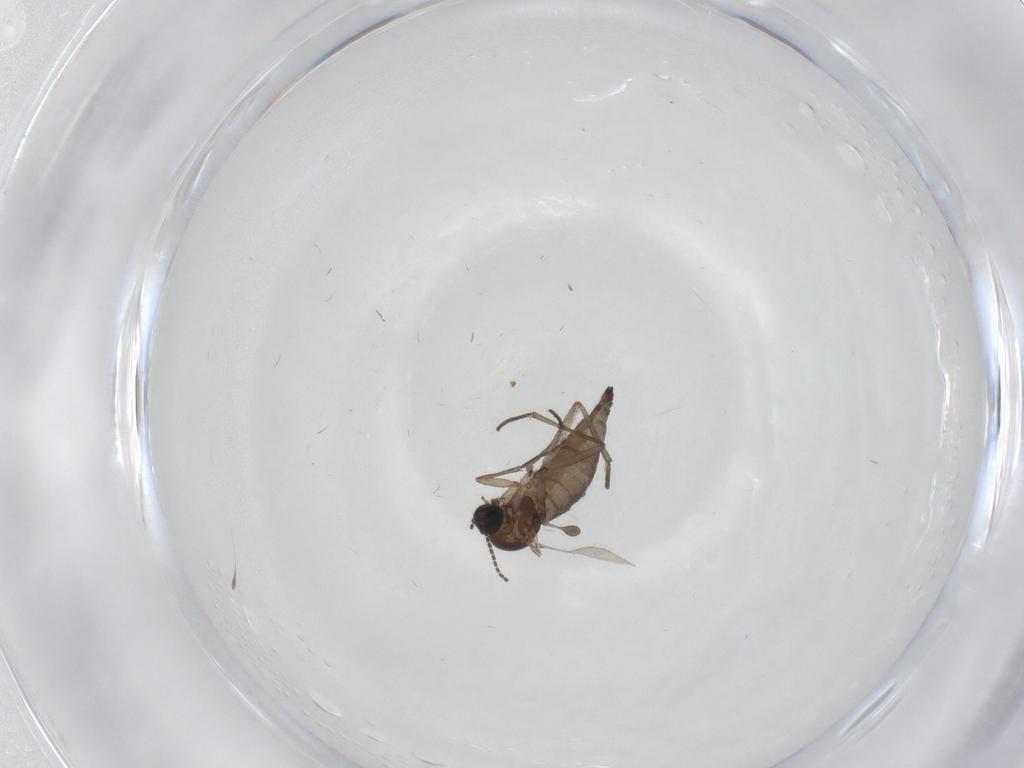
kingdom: Animalia
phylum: Arthropoda
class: Insecta
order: Diptera
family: Sciaridae
